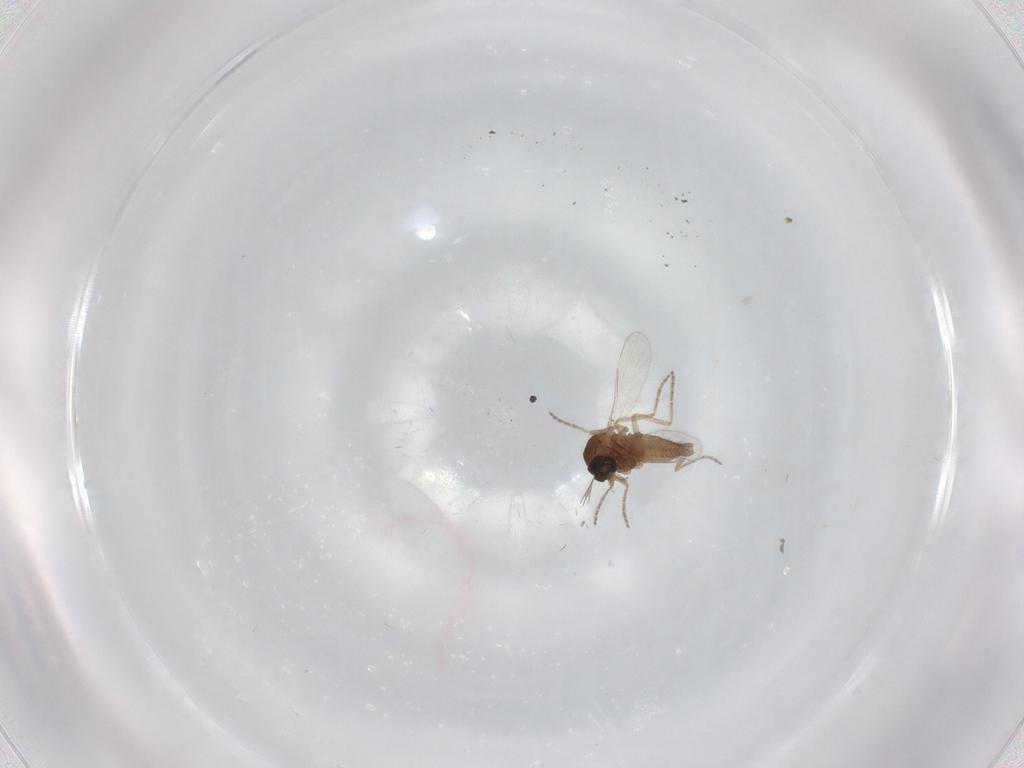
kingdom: Animalia
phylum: Arthropoda
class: Insecta
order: Diptera
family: Ceratopogonidae
